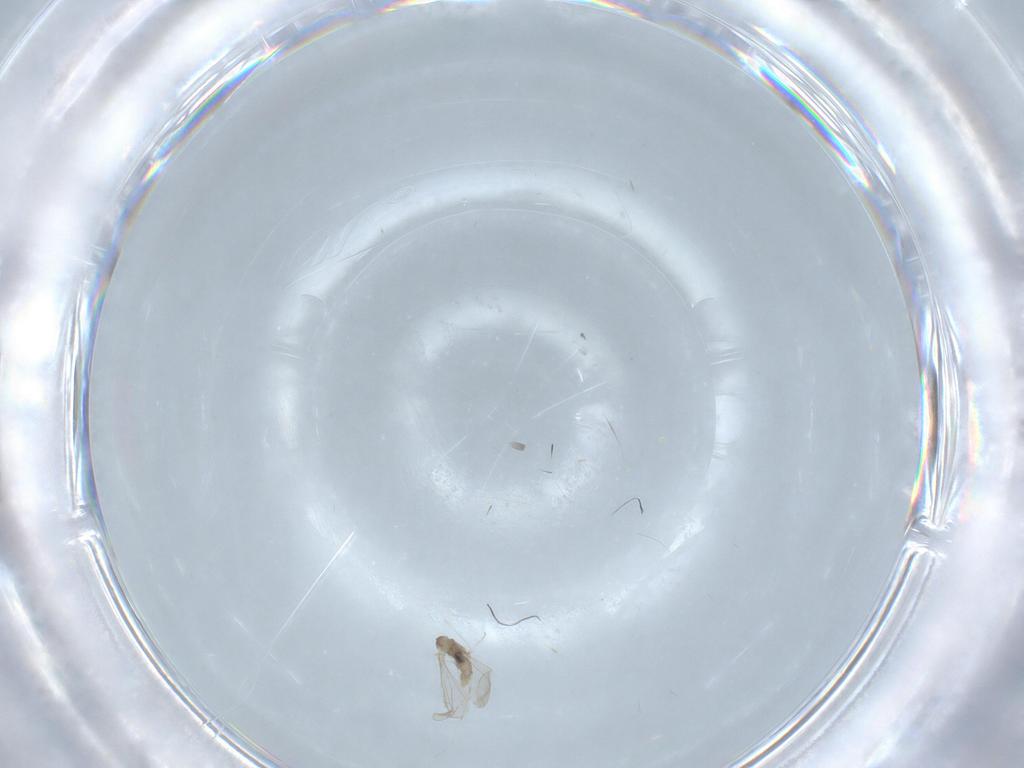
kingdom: Animalia
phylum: Arthropoda
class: Insecta
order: Diptera
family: Cecidomyiidae
